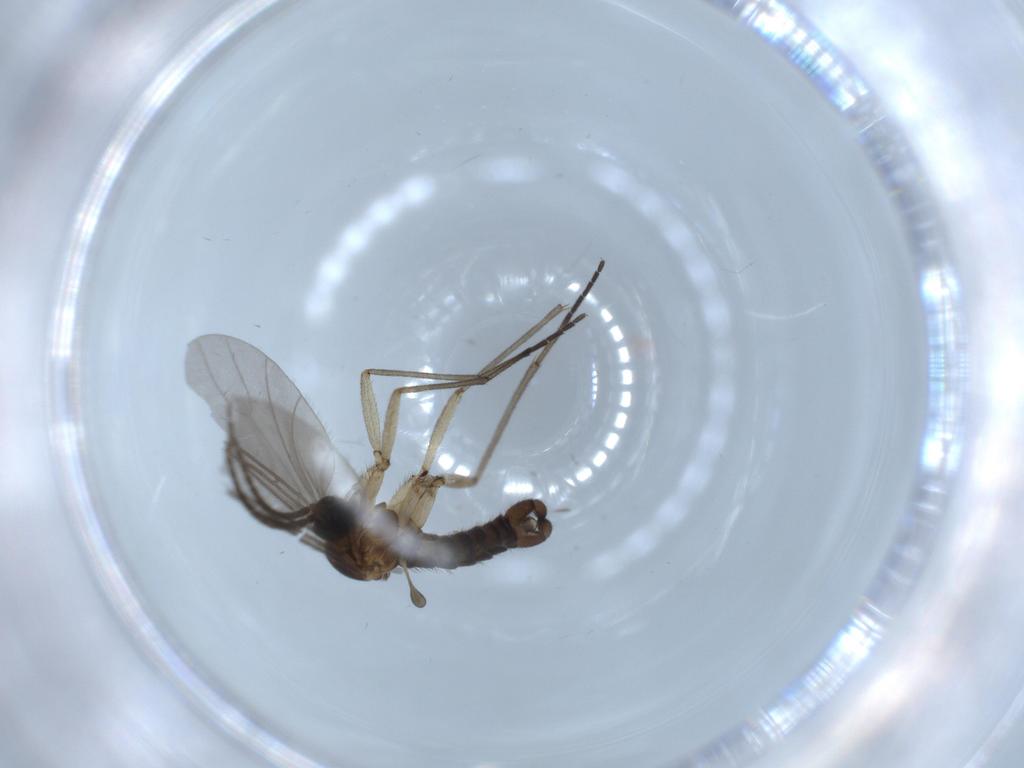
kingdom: Animalia
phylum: Arthropoda
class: Insecta
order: Diptera
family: Sciaridae
